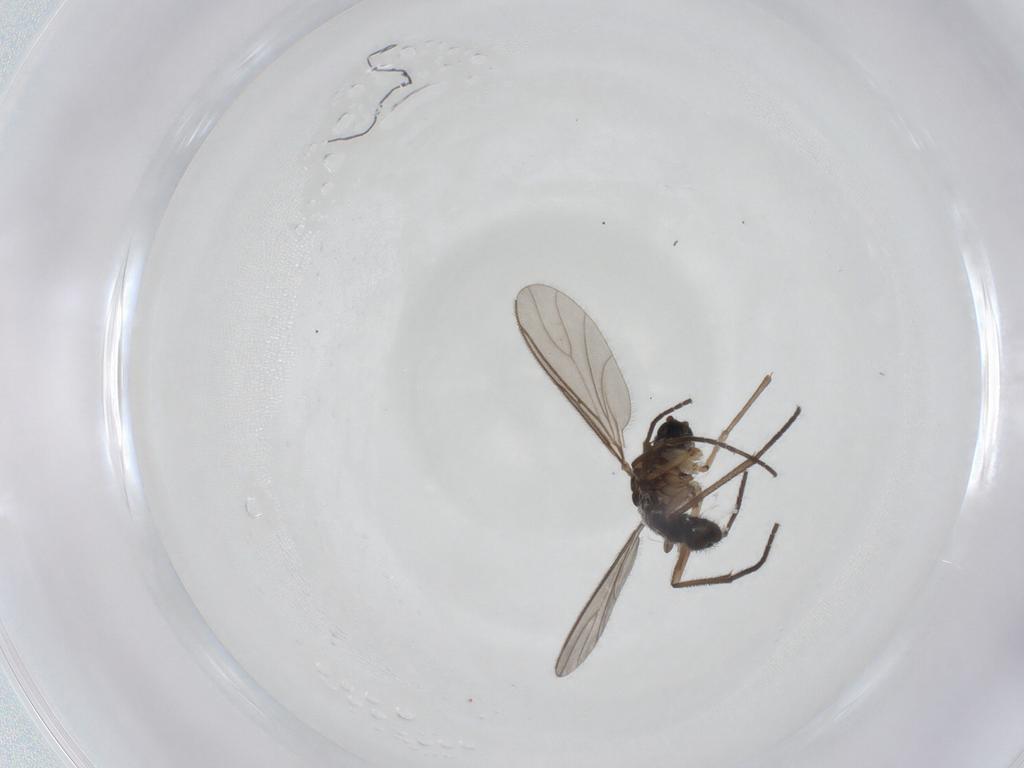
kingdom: Animalia
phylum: Arthropoda
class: Insecta
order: Diptera
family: Sciaridae
